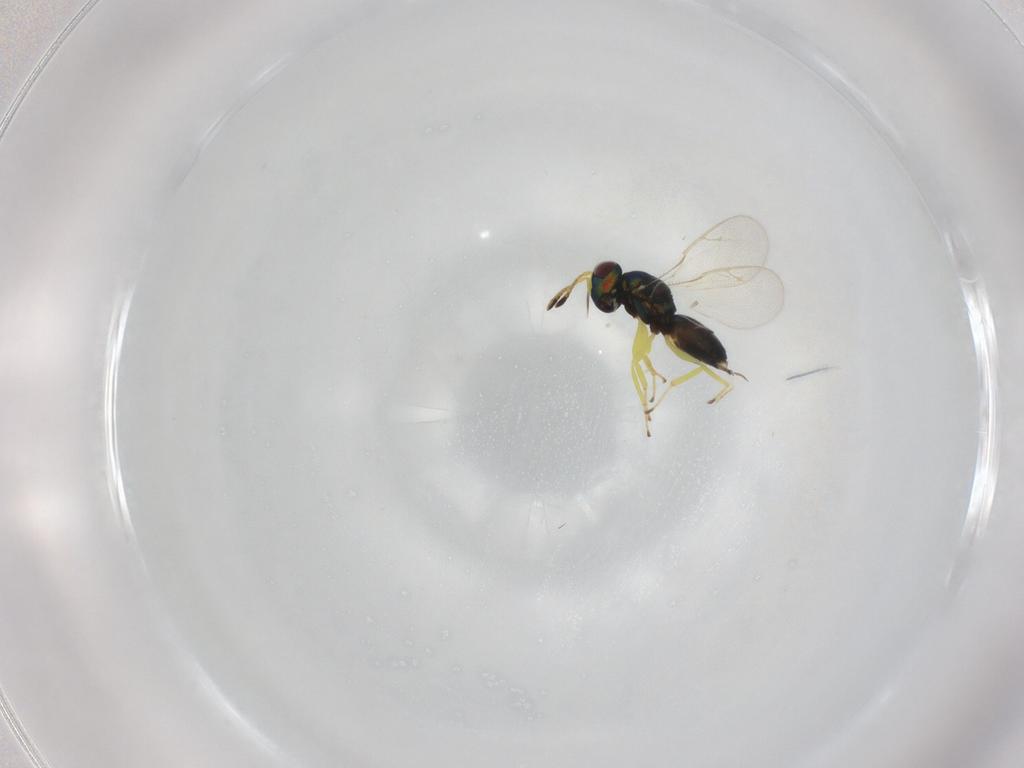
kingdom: Animalia
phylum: Arthropoda
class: Insecta
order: Hymenoptera
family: Pteromalidae
